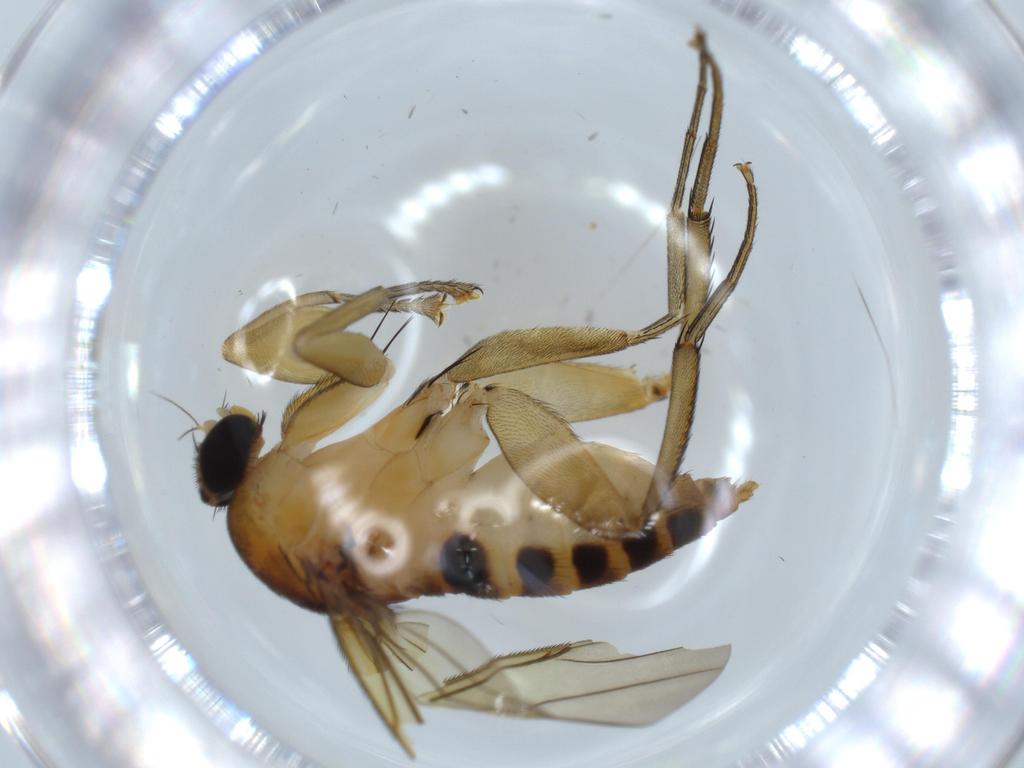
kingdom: Animalia
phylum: Arthropoda
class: Insecta
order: Diptera
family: Sciaridae
